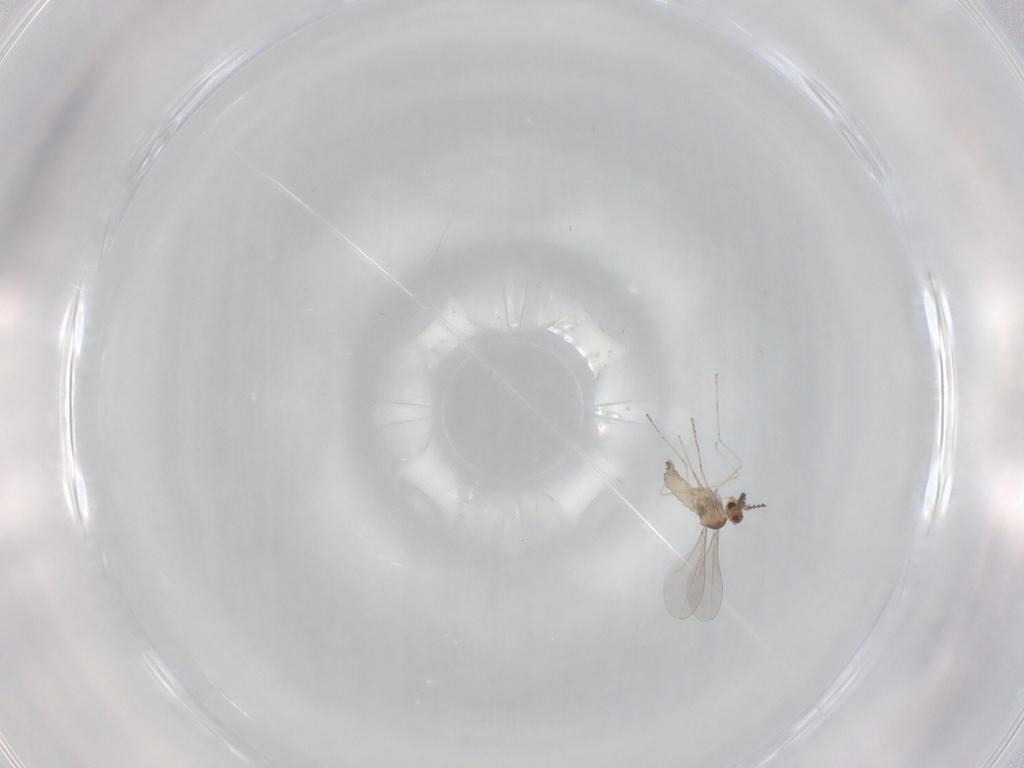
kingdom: Animalia
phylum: Arthropoda
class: Insecta
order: Diptera
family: Cecidomyiidae
